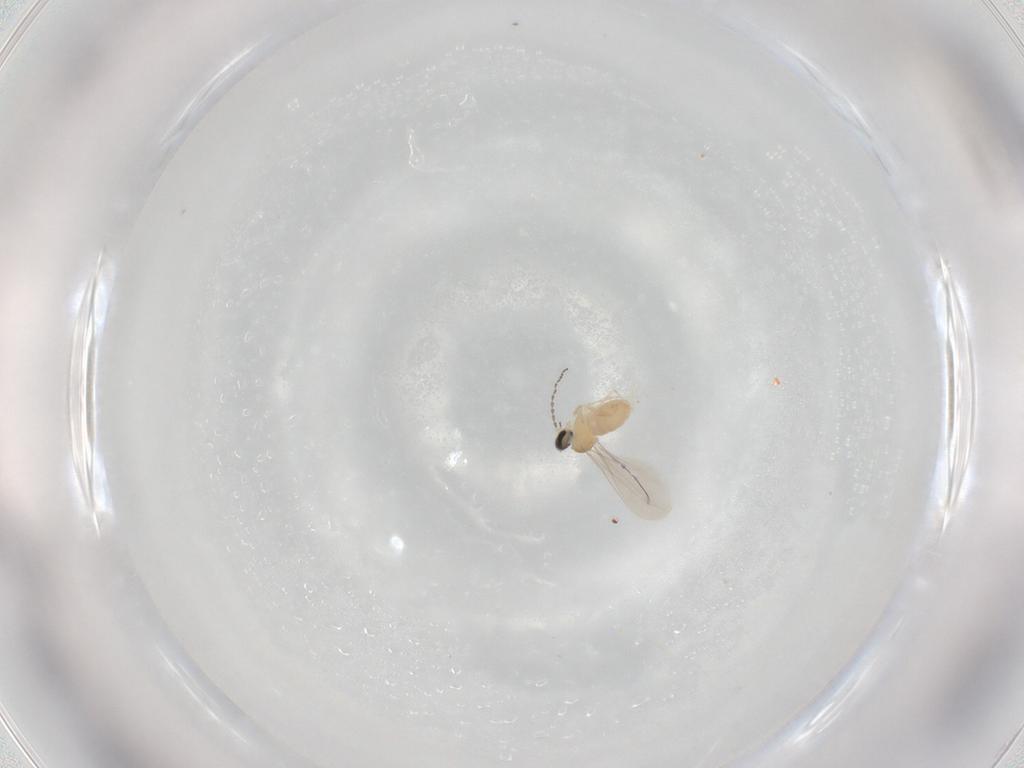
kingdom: Animalia
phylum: Arthropoda
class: Insecta
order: Diptera
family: Cecidomyiidae
